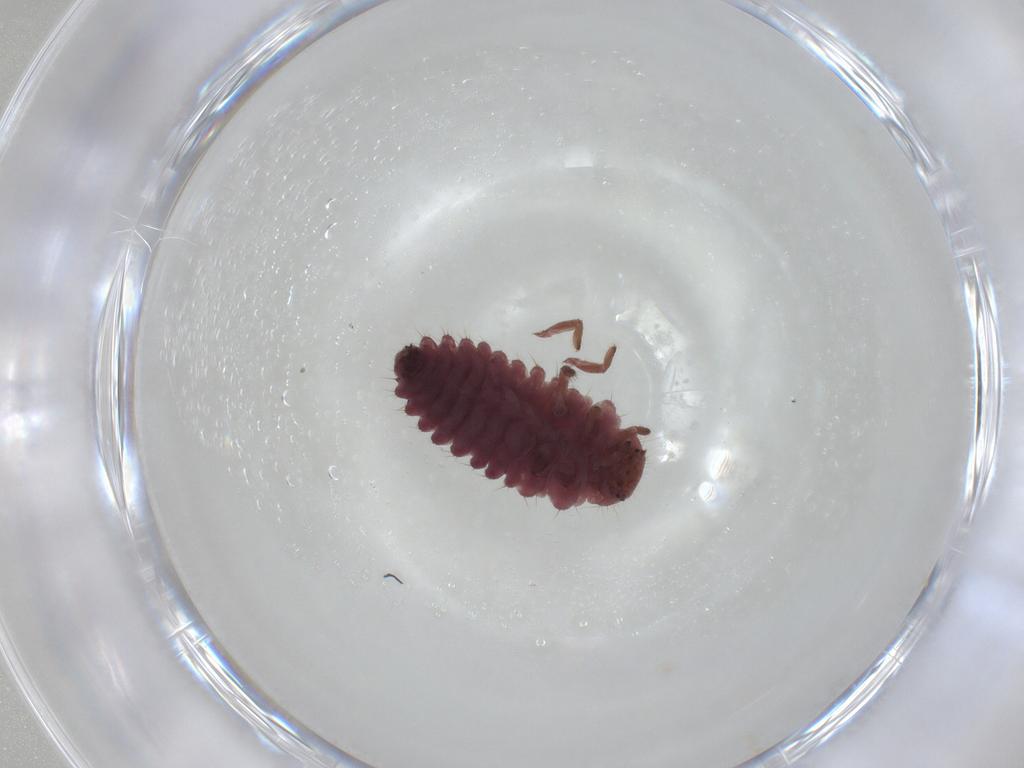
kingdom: Animalia
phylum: Arthropoda
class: Insecta
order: Coleoptera
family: Coccinellidae
